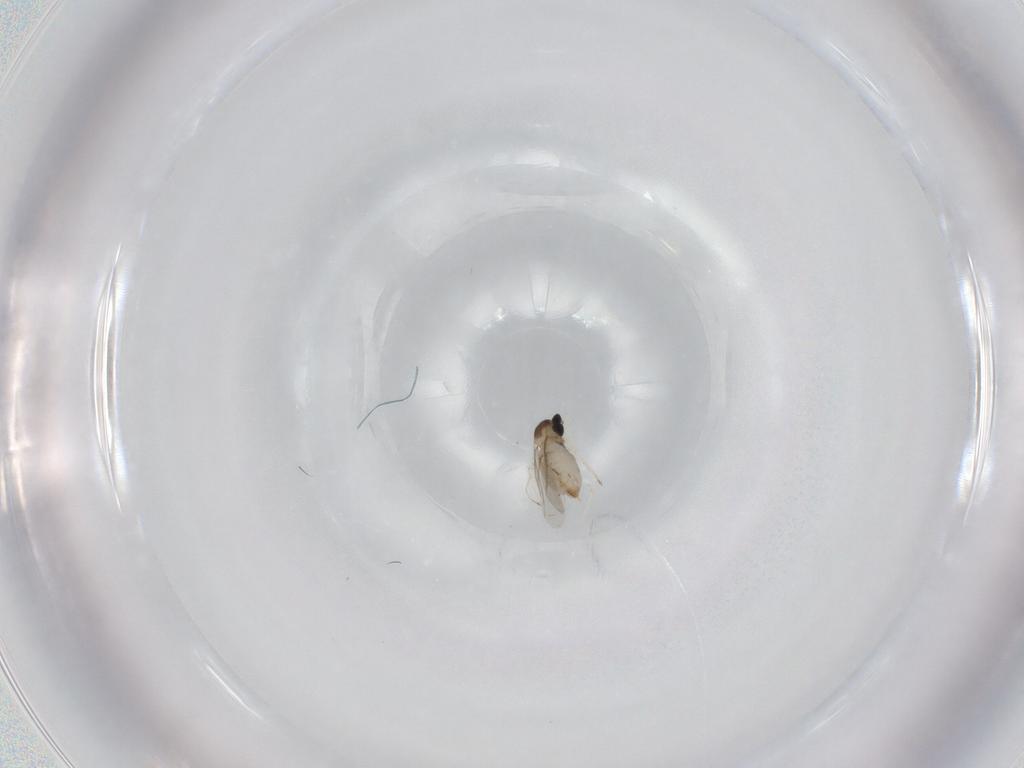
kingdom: Animalia
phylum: Arthropoda
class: Insecta
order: Diptera
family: Cecidomyiidae
